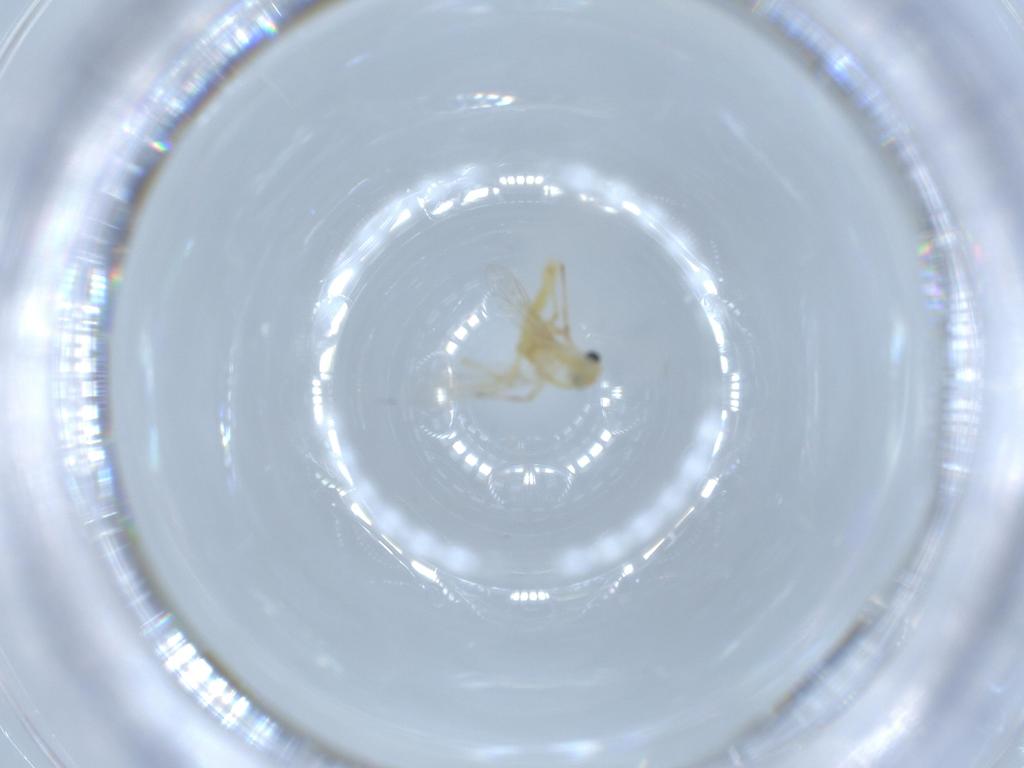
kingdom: Animalia
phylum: Arthropoda
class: Insecta
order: Diptera
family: Chironomidae
